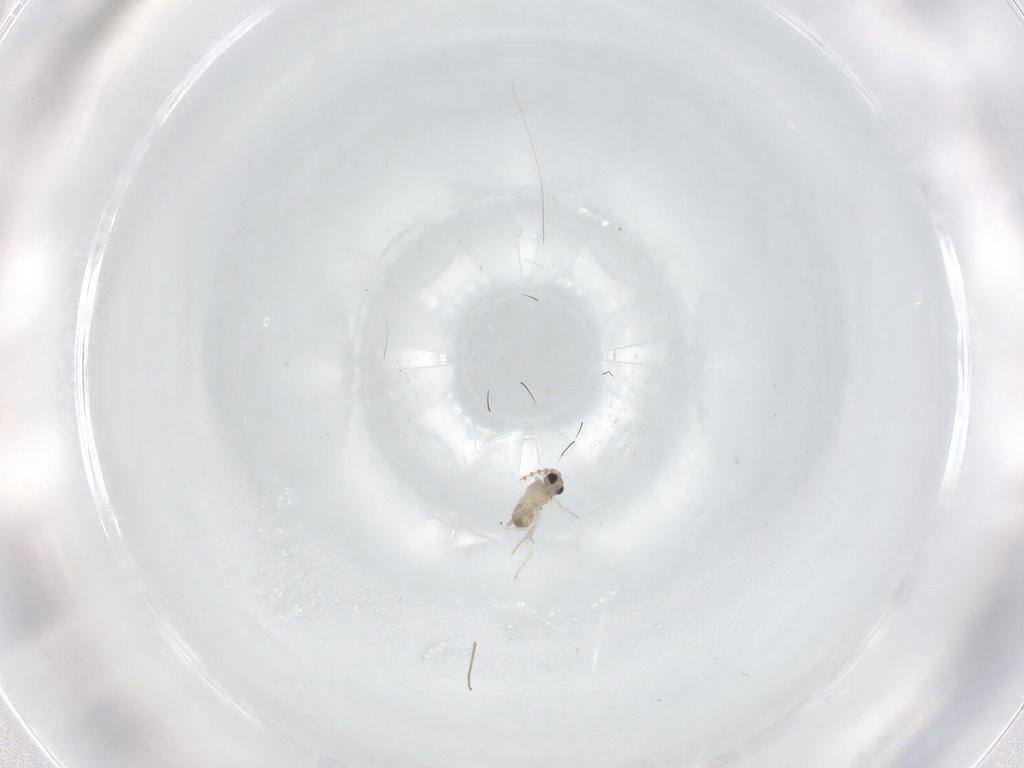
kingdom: Animalia
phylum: Arthropoda
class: Insecta
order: Diptera
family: Cecidomyiidae
